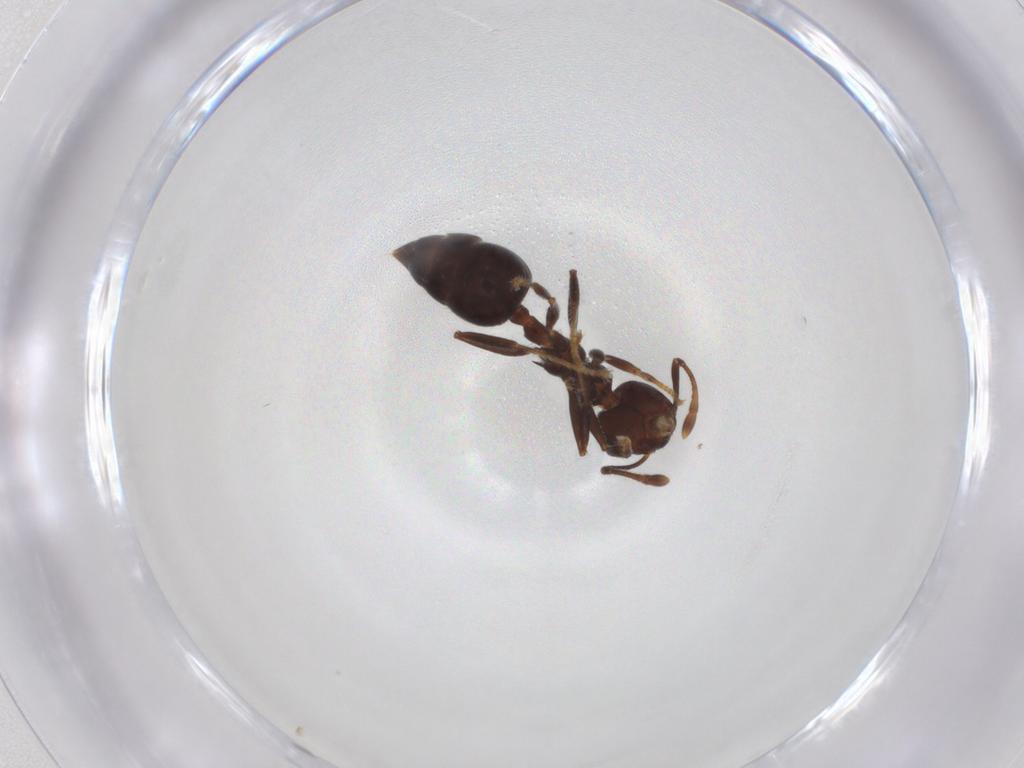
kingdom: Animalia
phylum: Arthropoda
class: Insecta
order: Hymenoptera
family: Formicidae
